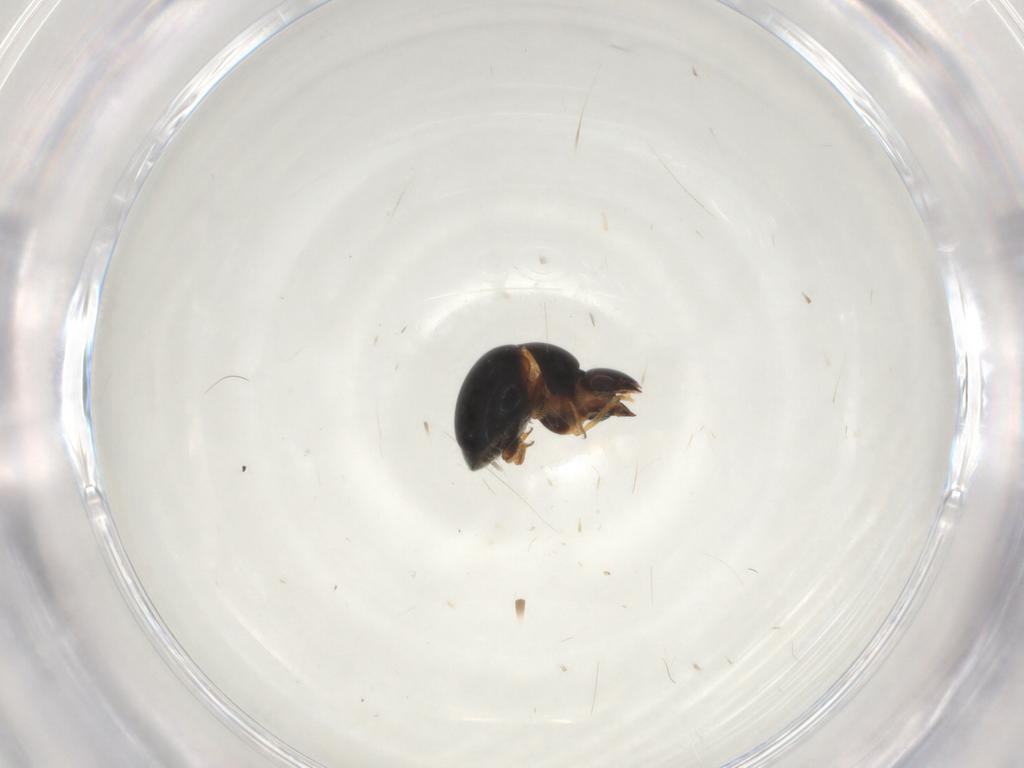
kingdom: Animalia
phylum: Arthropoda
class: Insecta
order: Coleoptera
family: Cybocephalidae
